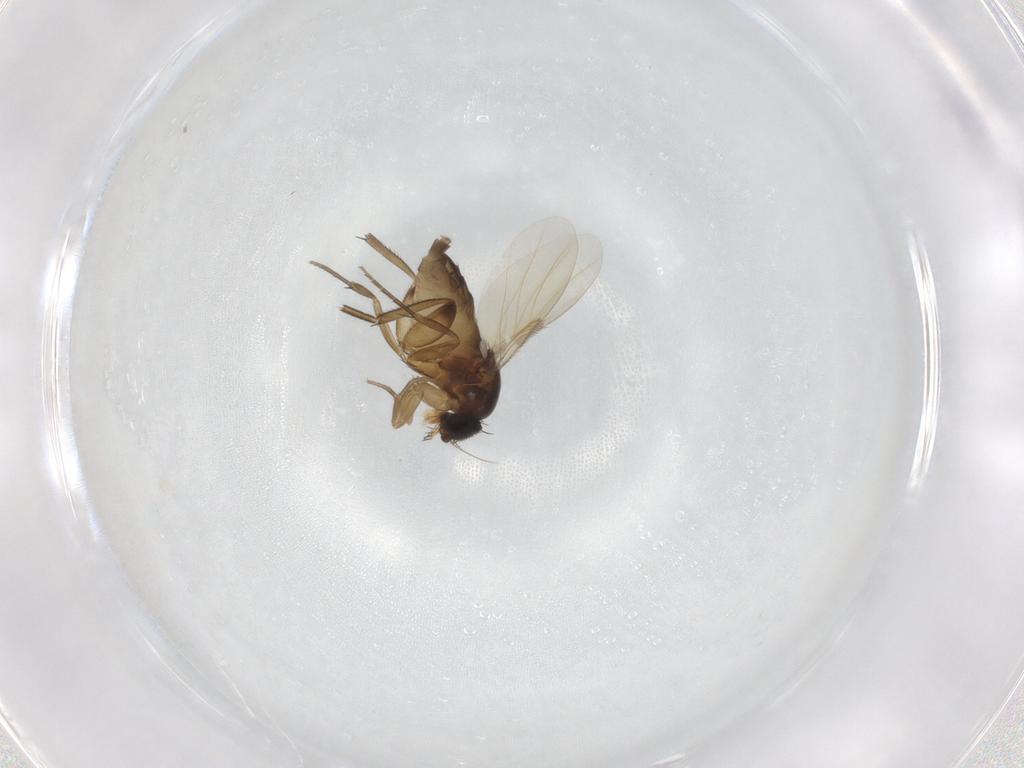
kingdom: Animalia
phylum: Arthropoda
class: Insecta
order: Diptera
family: Phoridae
